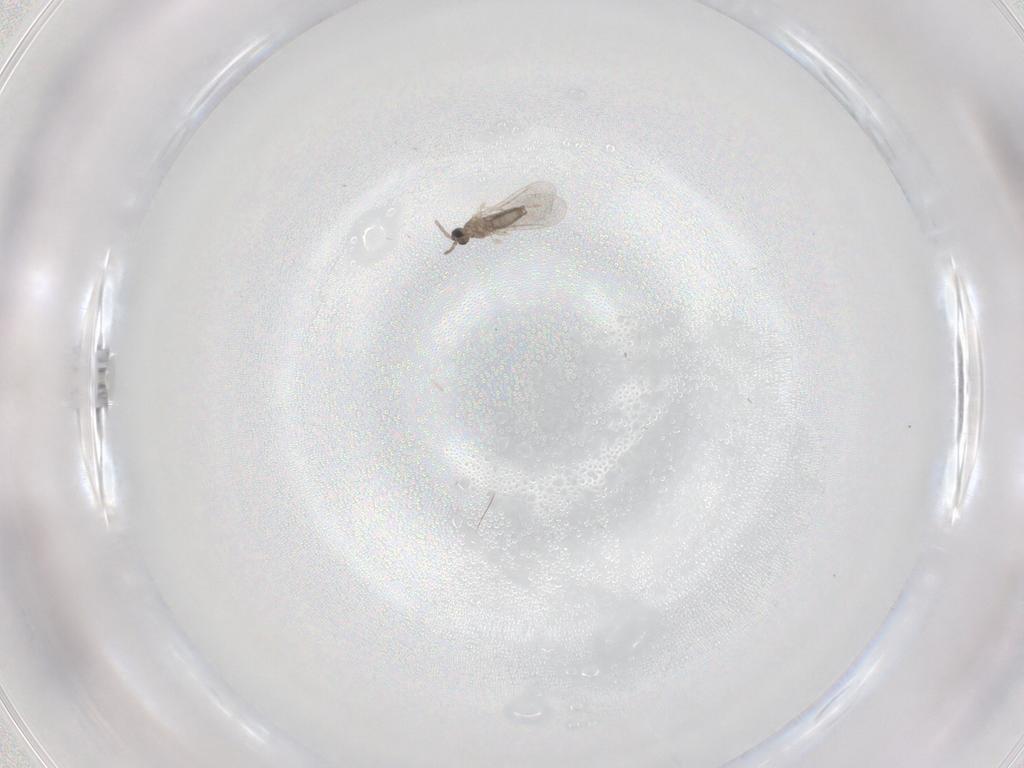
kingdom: Animalia
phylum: Arthropoda
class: Insecta
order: Diptera
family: Cecidomyiidae
